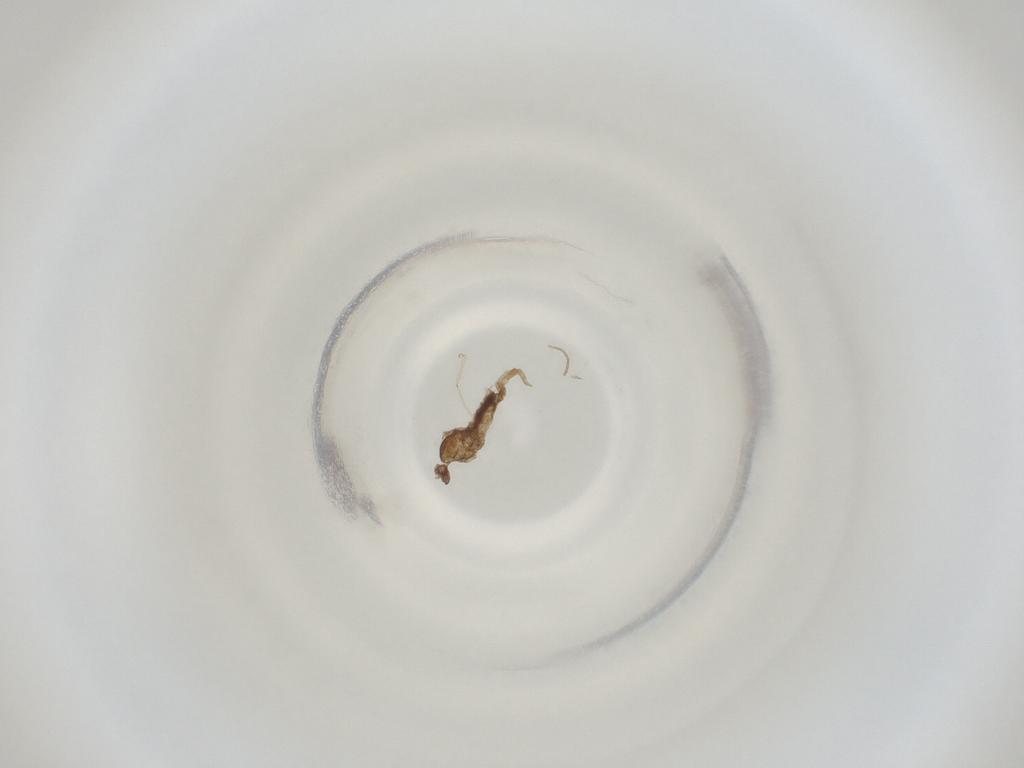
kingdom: Animalia
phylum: Arthropoda
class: Insecta
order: Diptera
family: Cecidomyiidae
